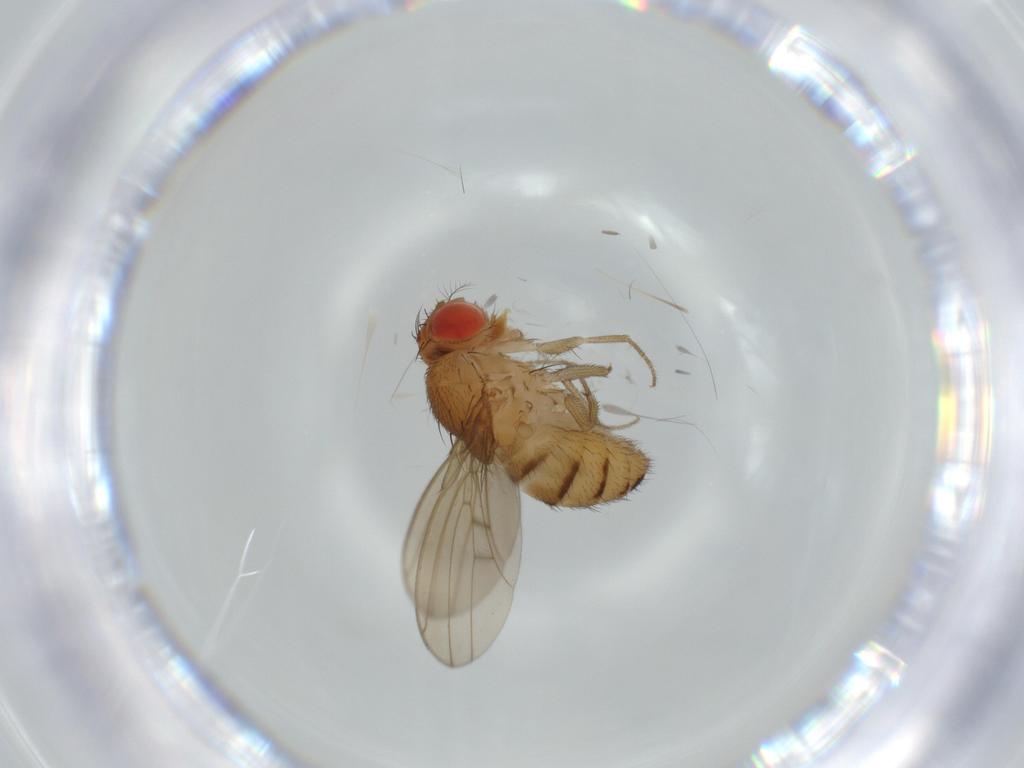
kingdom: Animalia
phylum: Arthropoda
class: Insecta
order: Diptera
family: Drosophilidae
